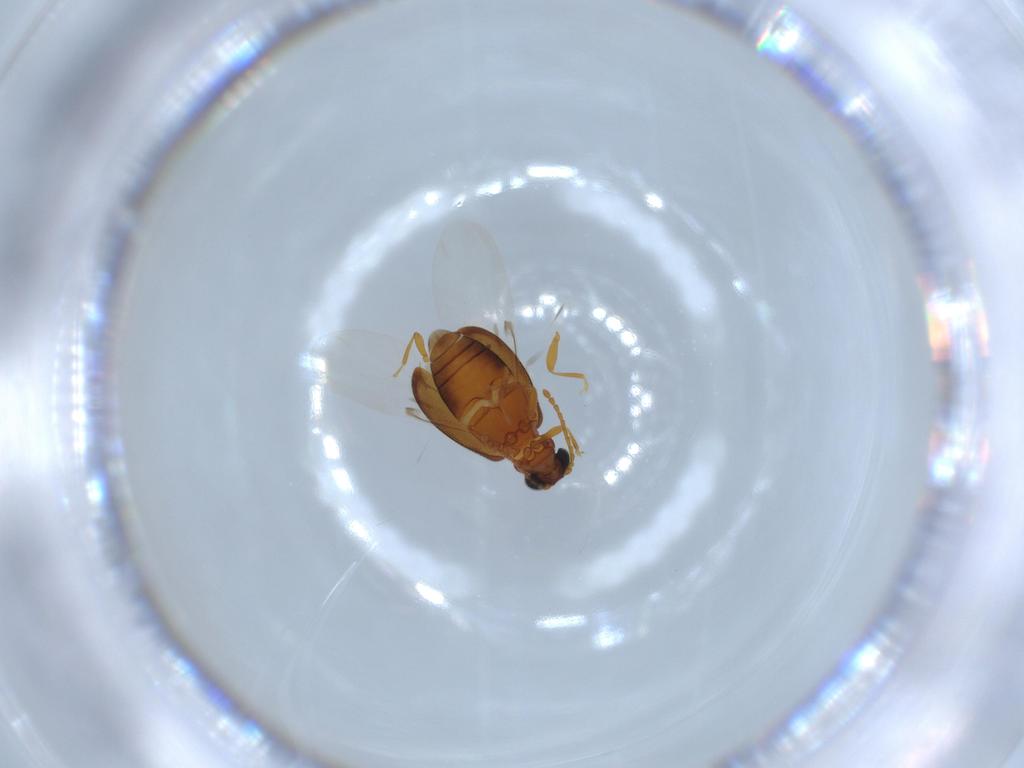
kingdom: Animalia
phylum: Arthropoda
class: Insecta
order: Coleoptera
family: Aderidae
